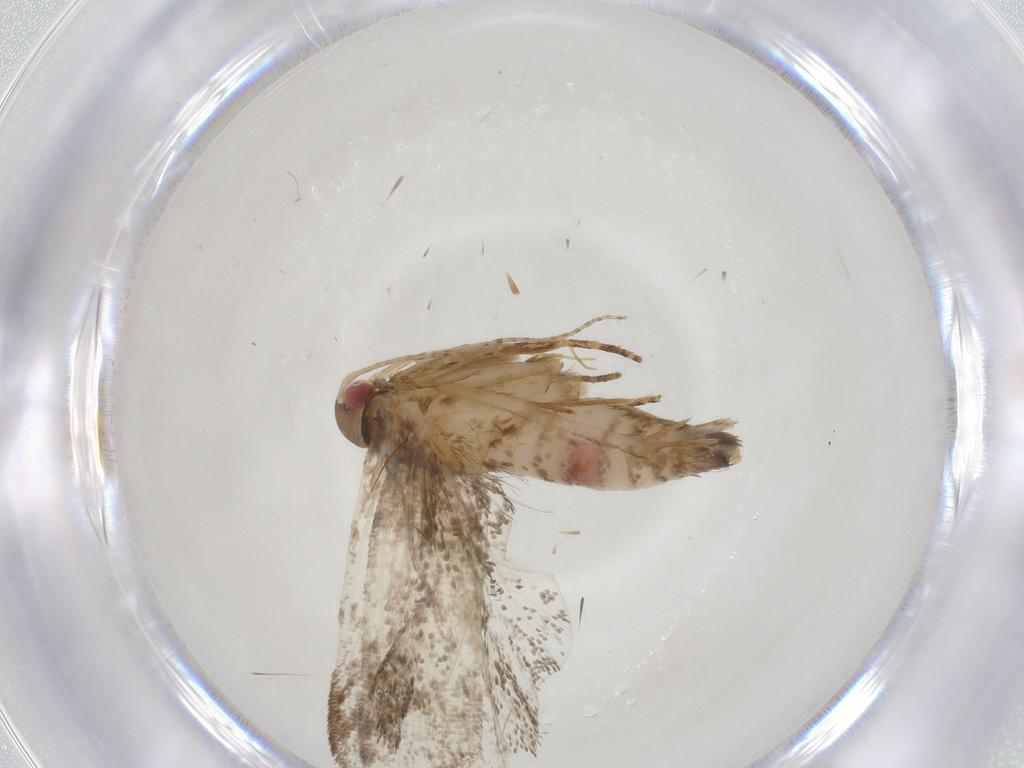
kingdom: Animalia
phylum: Arthropoda
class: Insecta
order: Lepidoptera
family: Gelechiidae
